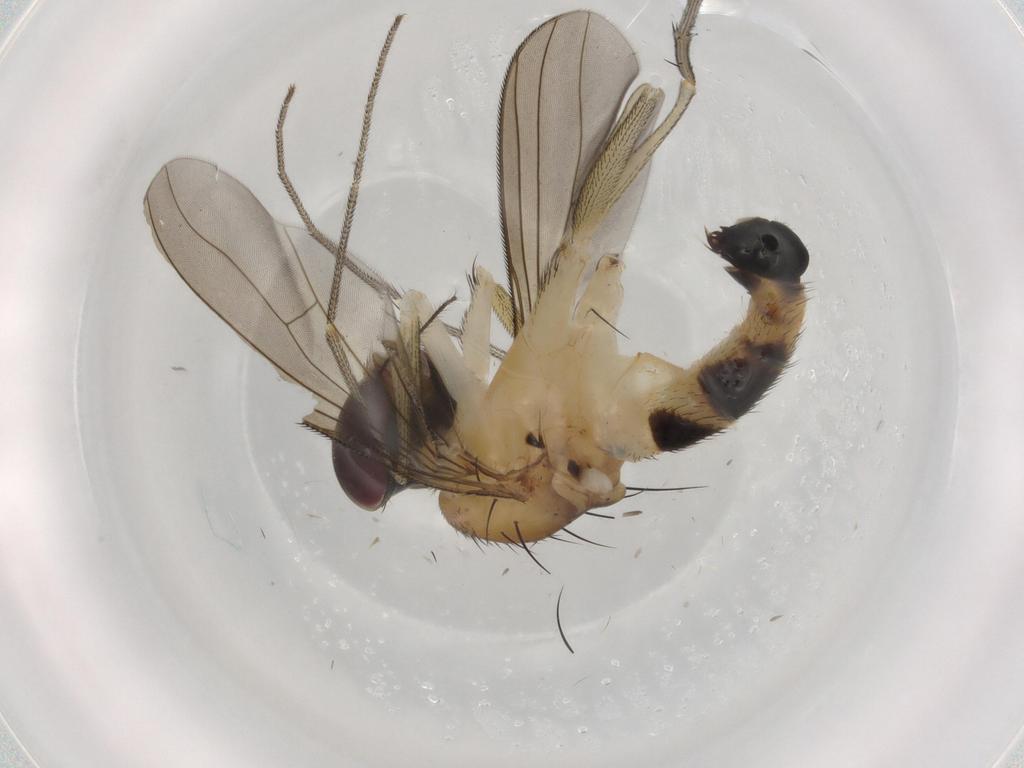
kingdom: Animalia
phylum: Arthropoda
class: Insecta
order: Diptera
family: Dolichopodidae
